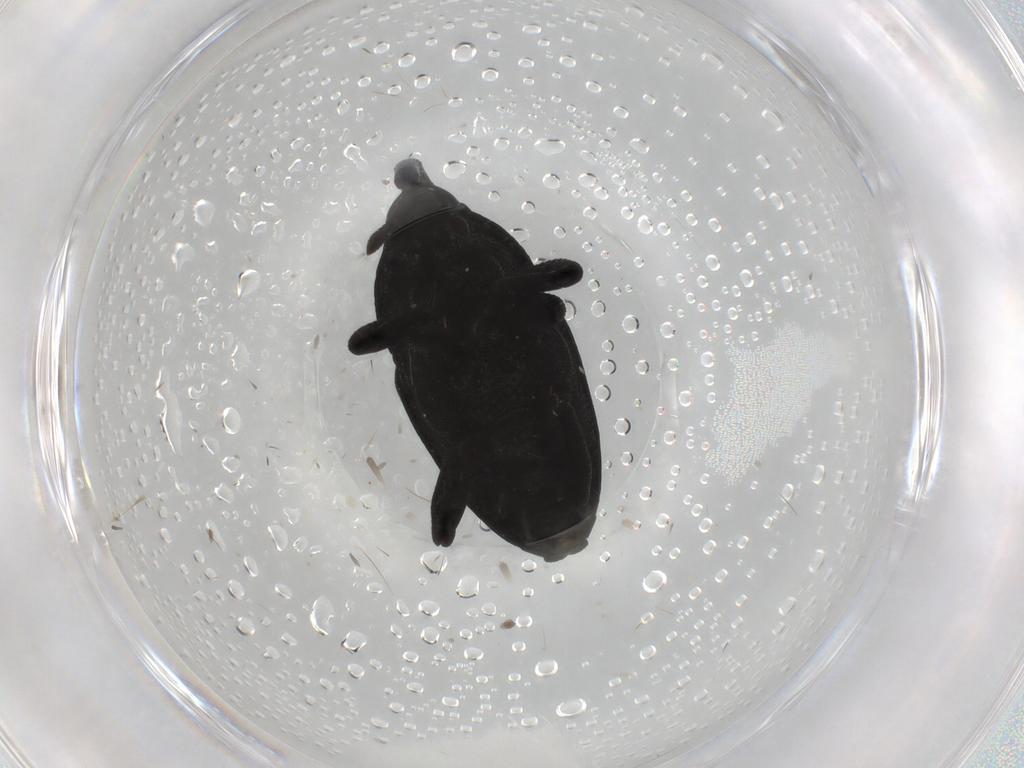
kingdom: Animalia
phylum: Arthropoda
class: Insecta
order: Coleoptera
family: Curculionidae
